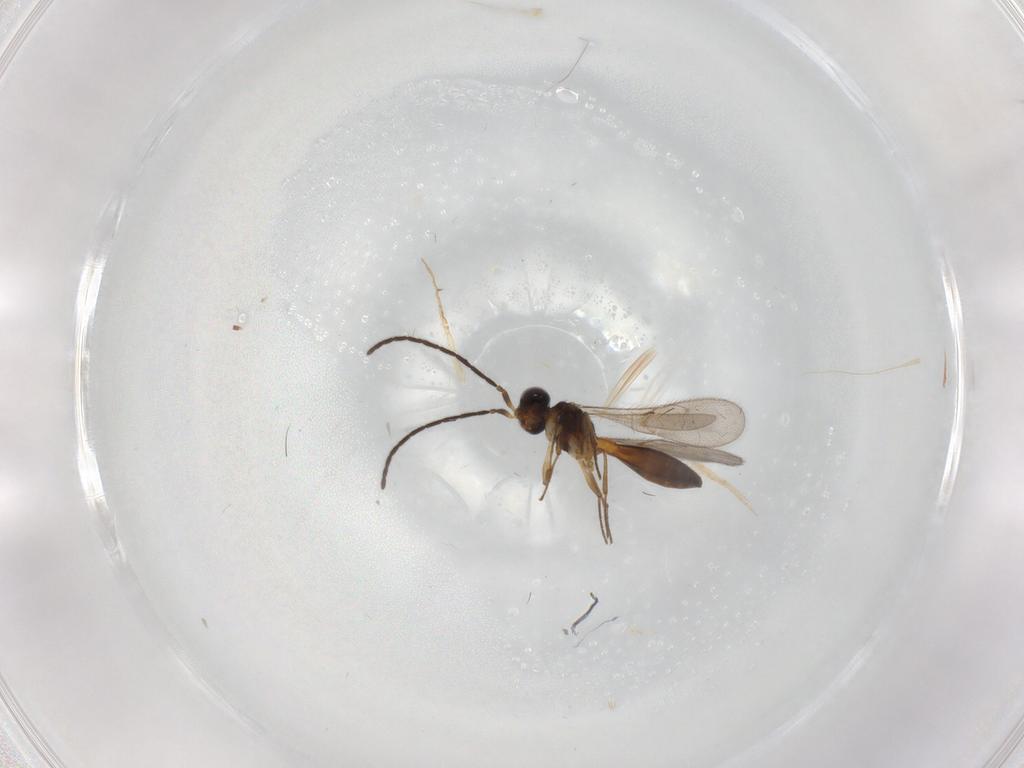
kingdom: Animalia
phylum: Arthropoda
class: Insecta
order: Hymenoptera
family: Scelionidae
